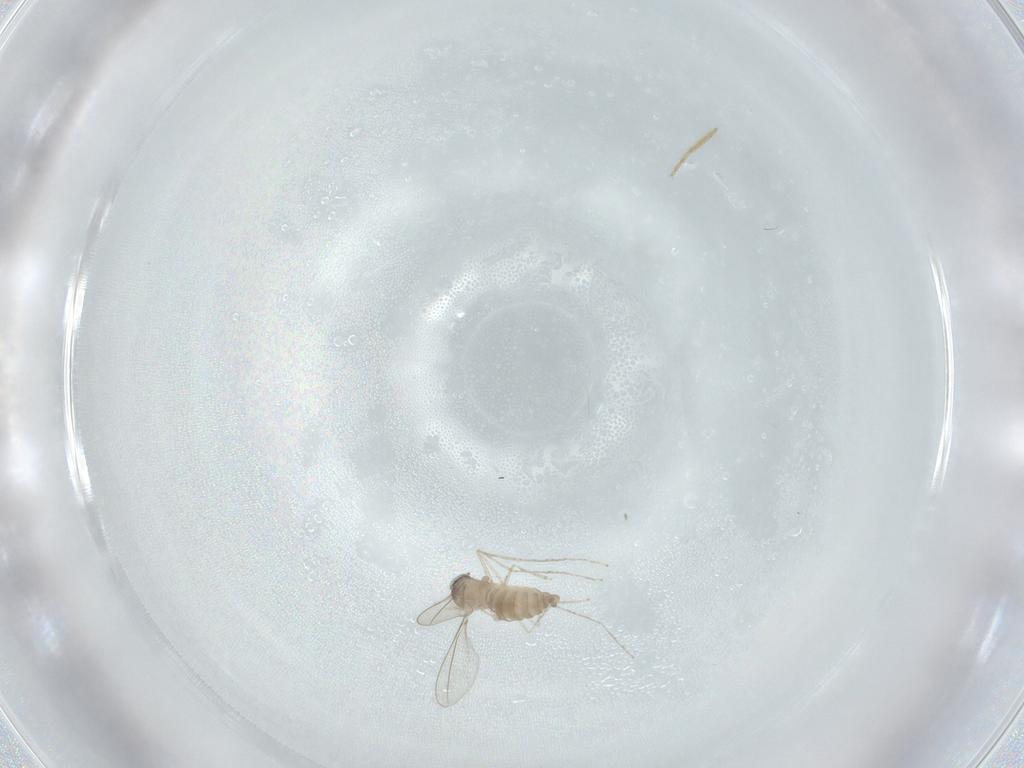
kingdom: Animalia
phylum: Arthropoda
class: Insecta
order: Diptera
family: Cecidomyiidae
